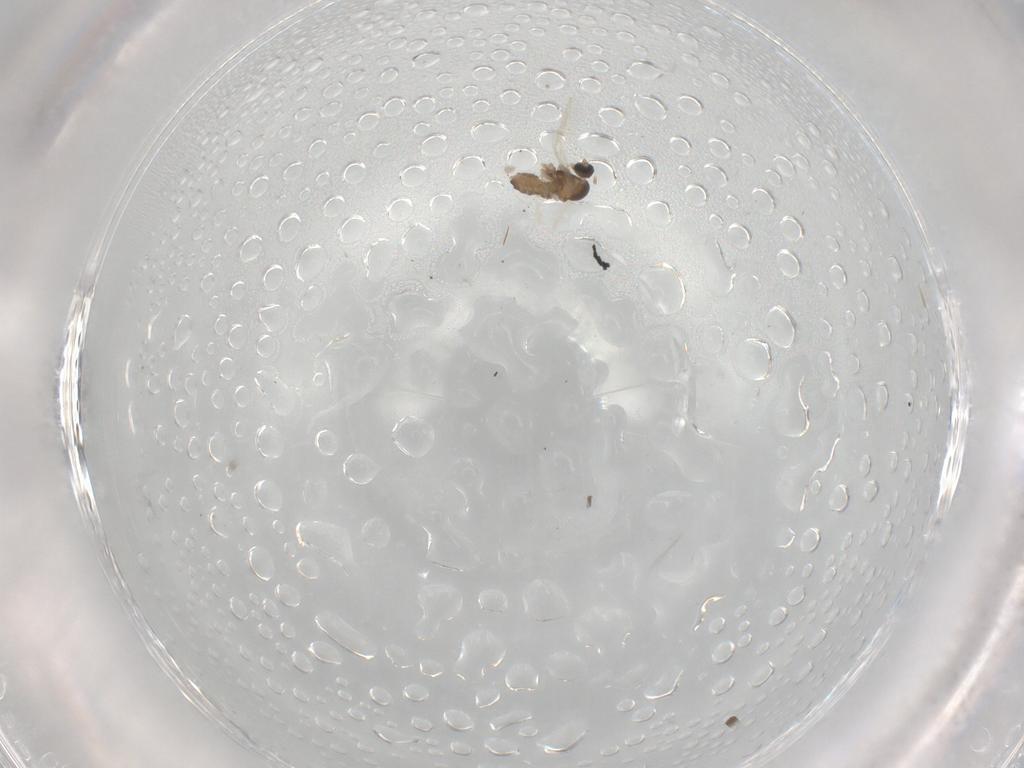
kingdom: Animalia
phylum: Arthropoda
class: Insecta
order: Diptera
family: Cecidomyiidae
